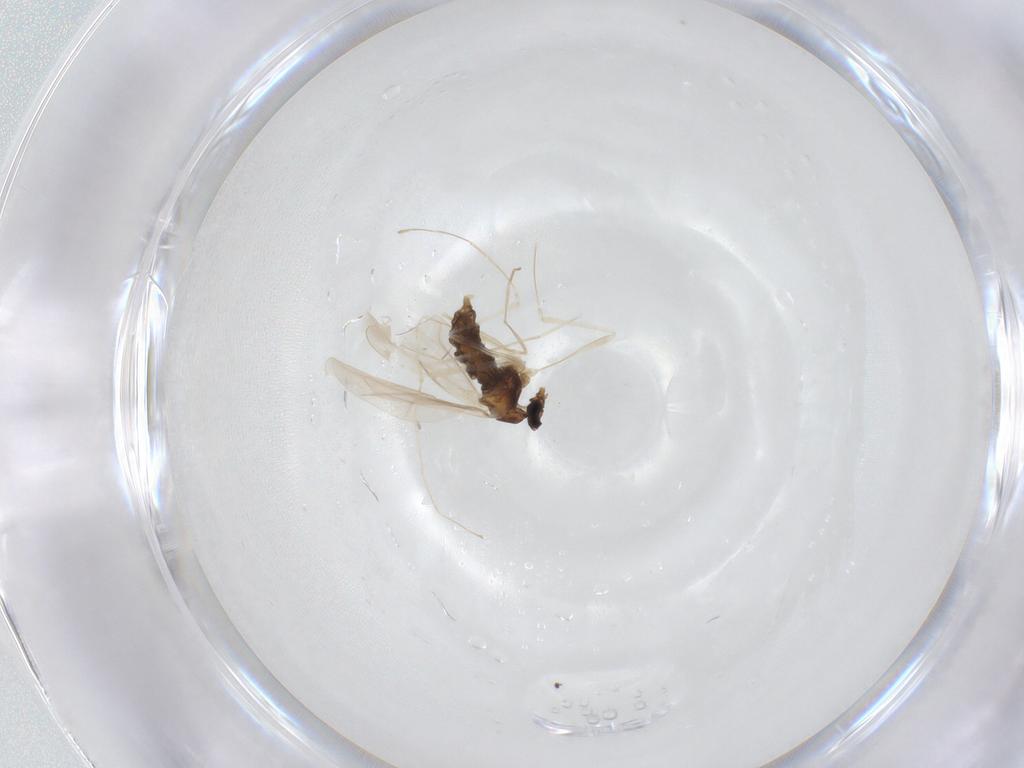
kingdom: Animalia
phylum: Arthropoda
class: Insecta
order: Diptera
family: Cecidomyiidae
